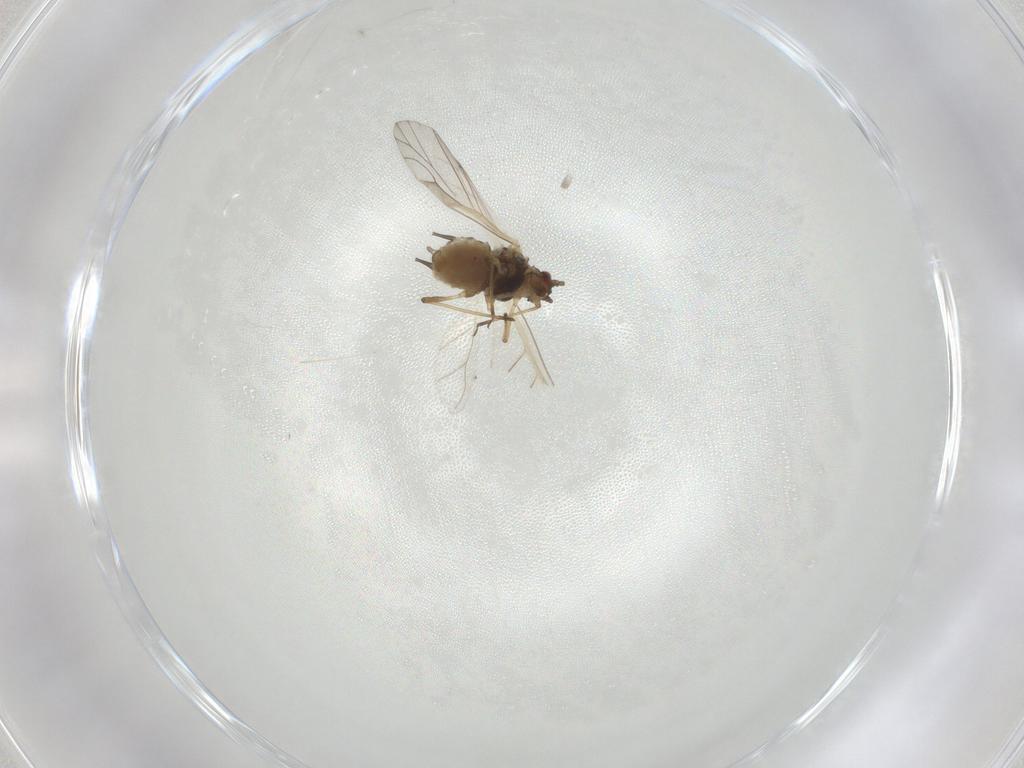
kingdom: Animalia
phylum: Arthropoda
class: Insecta
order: Hemiptera
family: Aphididae
